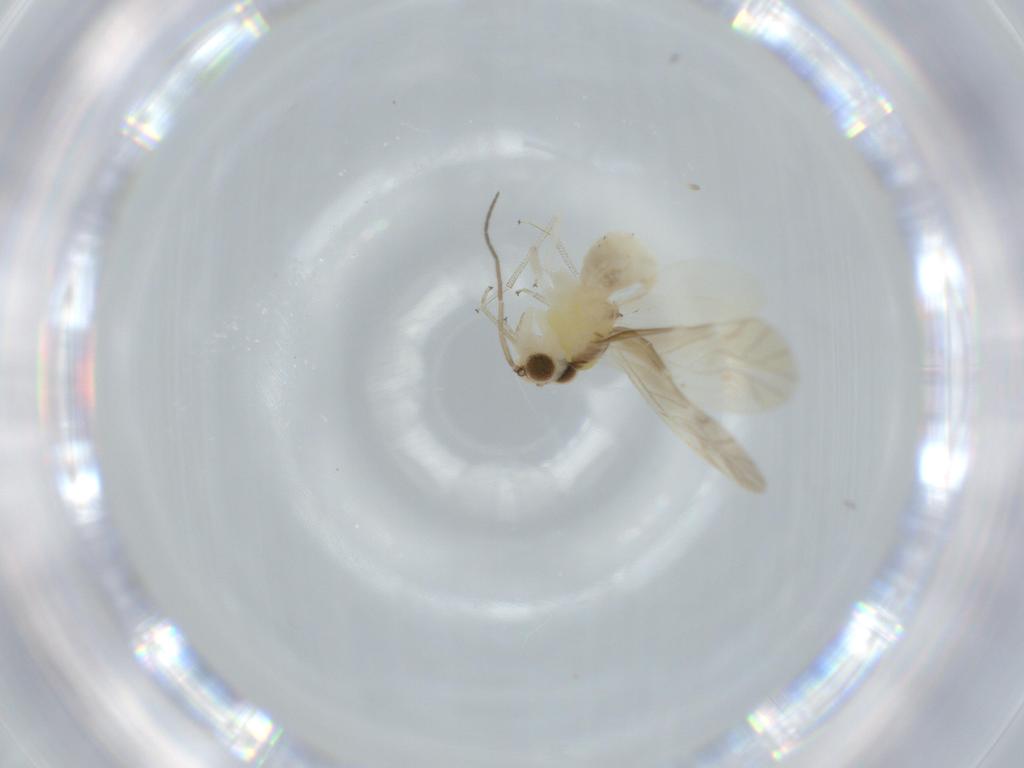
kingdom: Animalia
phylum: Arthropoda
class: Insecta
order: Psocodea
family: Caeciliusidae
